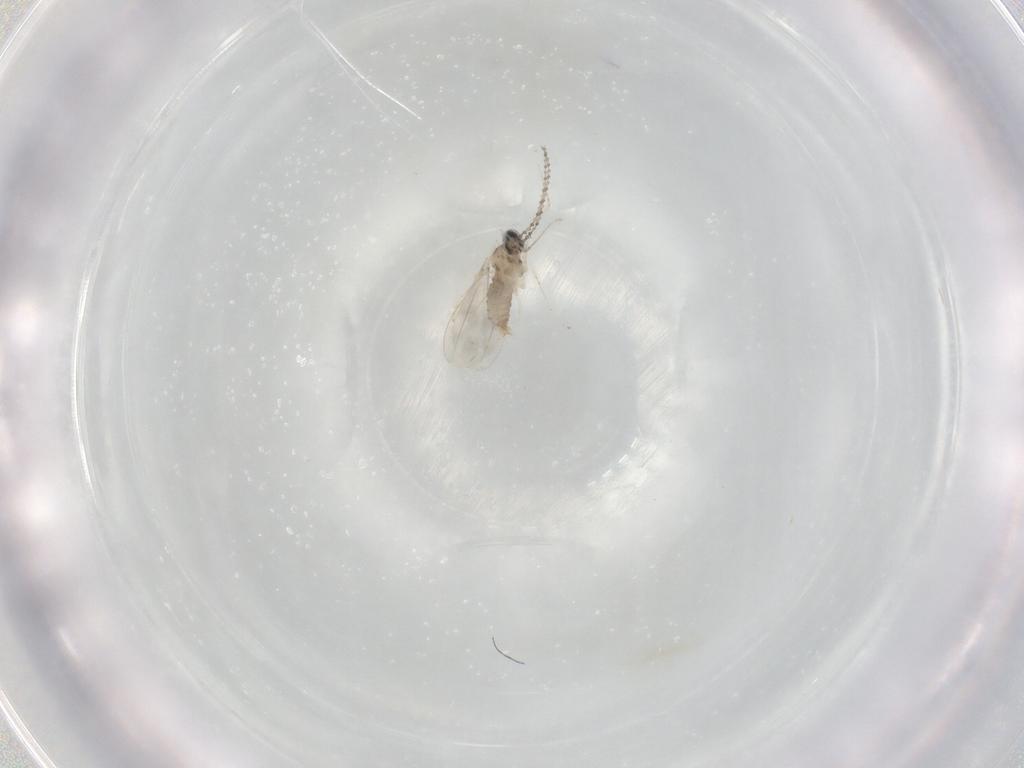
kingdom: Animalia
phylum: Arthropoda
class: Insecta
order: Diptera
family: Cecidomyiidae
